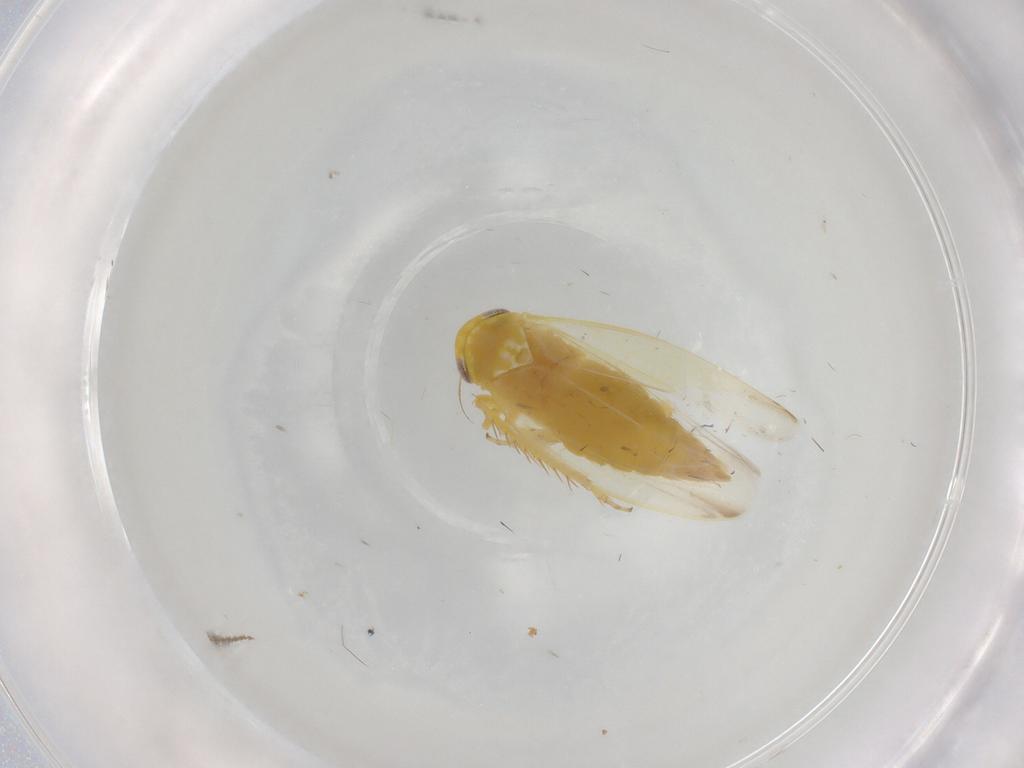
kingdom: Animalia
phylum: Arthropoda
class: Insecta
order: Hemiptera
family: Cicadellidae
